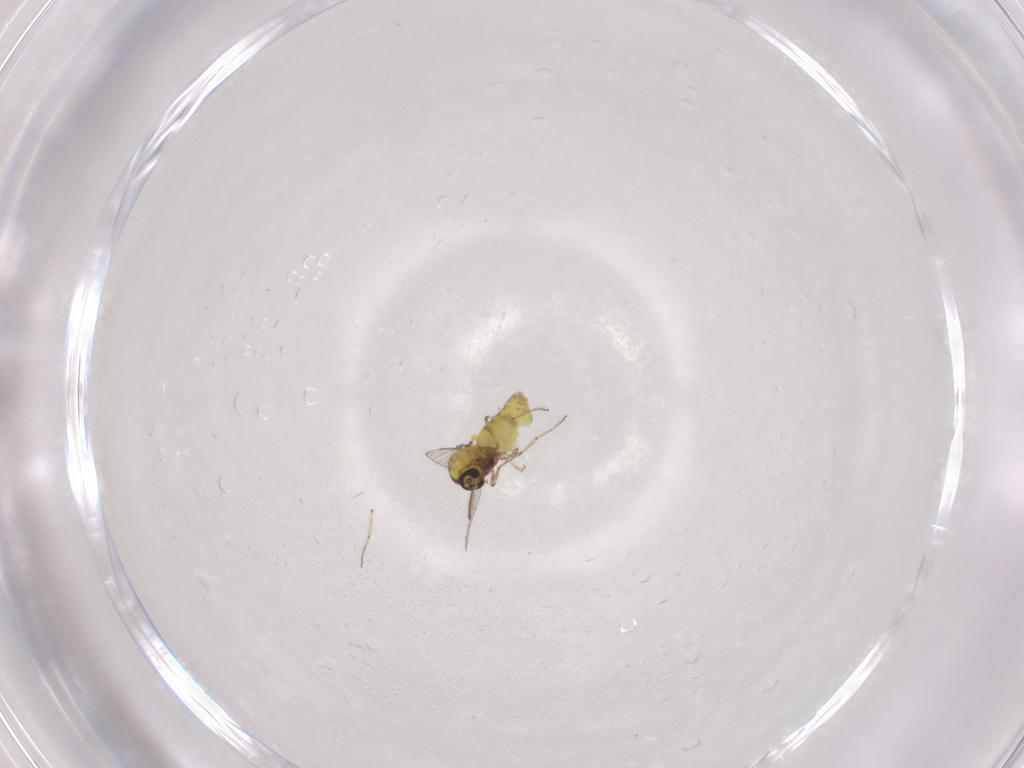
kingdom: Animalia
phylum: Arthropoda
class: Insecta
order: Diptera
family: Ceratopogonidae
